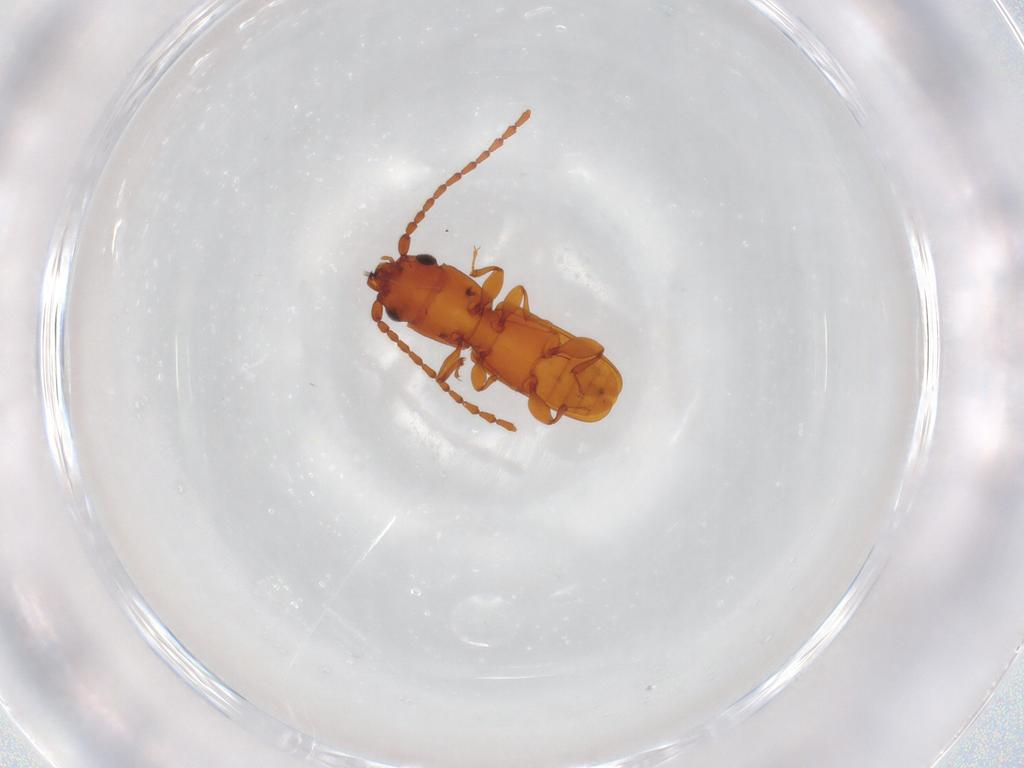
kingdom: Animalia
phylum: Arthropoda
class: Insecta
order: Coleoptera
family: Laemophloeidae
